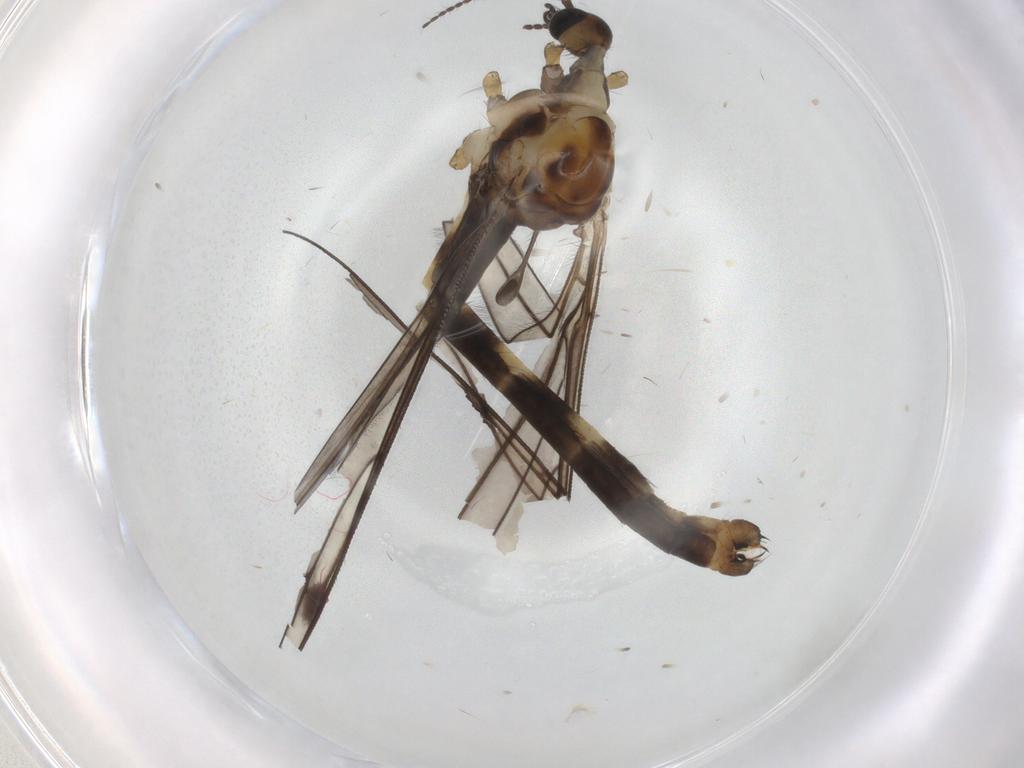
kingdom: Animalia
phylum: Arthropoda
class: Insecta
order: Diptera
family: Limoniidae
